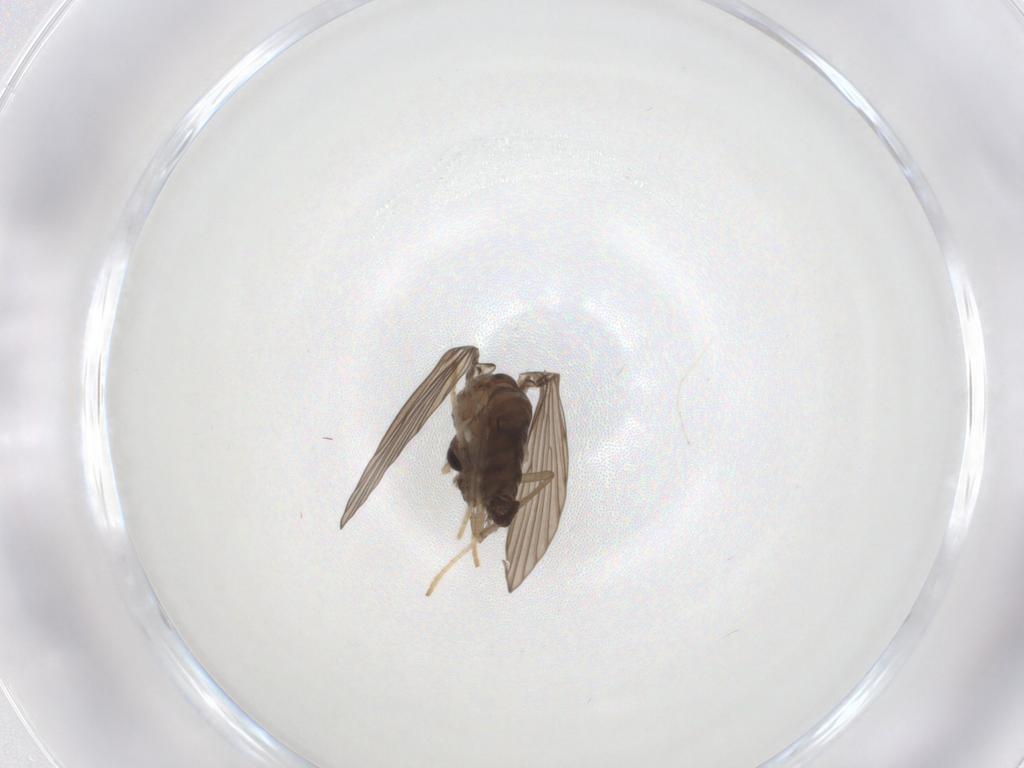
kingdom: Animalia
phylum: Arthropoda
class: Insecta
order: Diptera
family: Psychodidae
